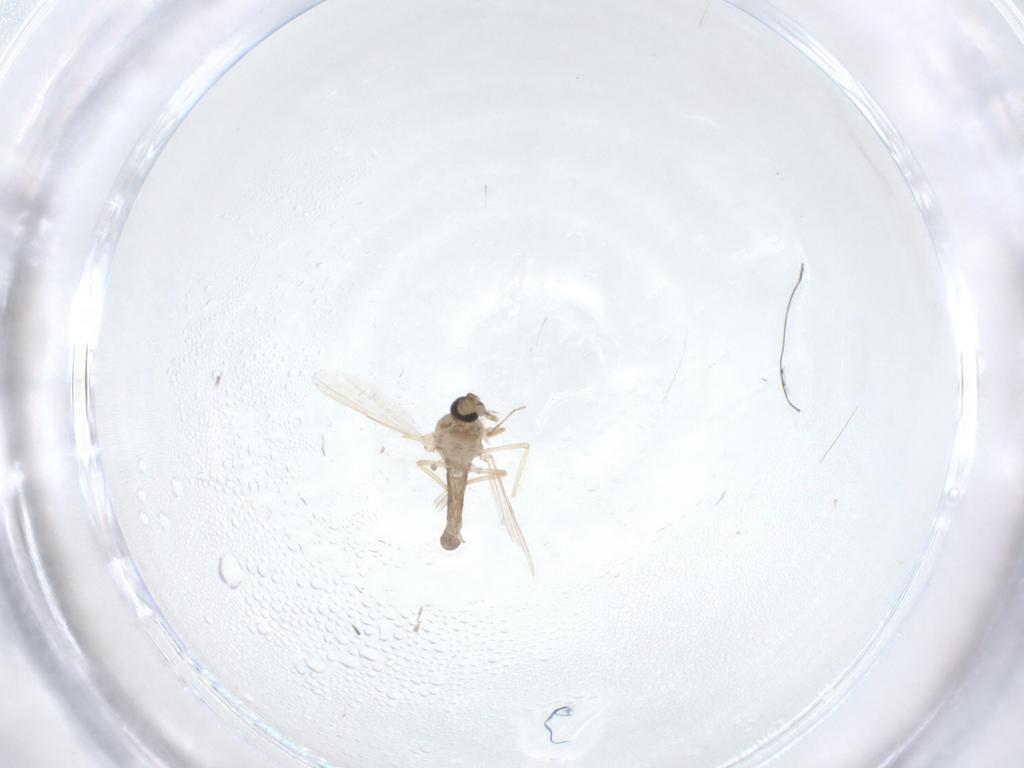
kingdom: Animalia
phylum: Arthropoda
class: Insecta
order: Diptera
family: Ceratopogonidae
